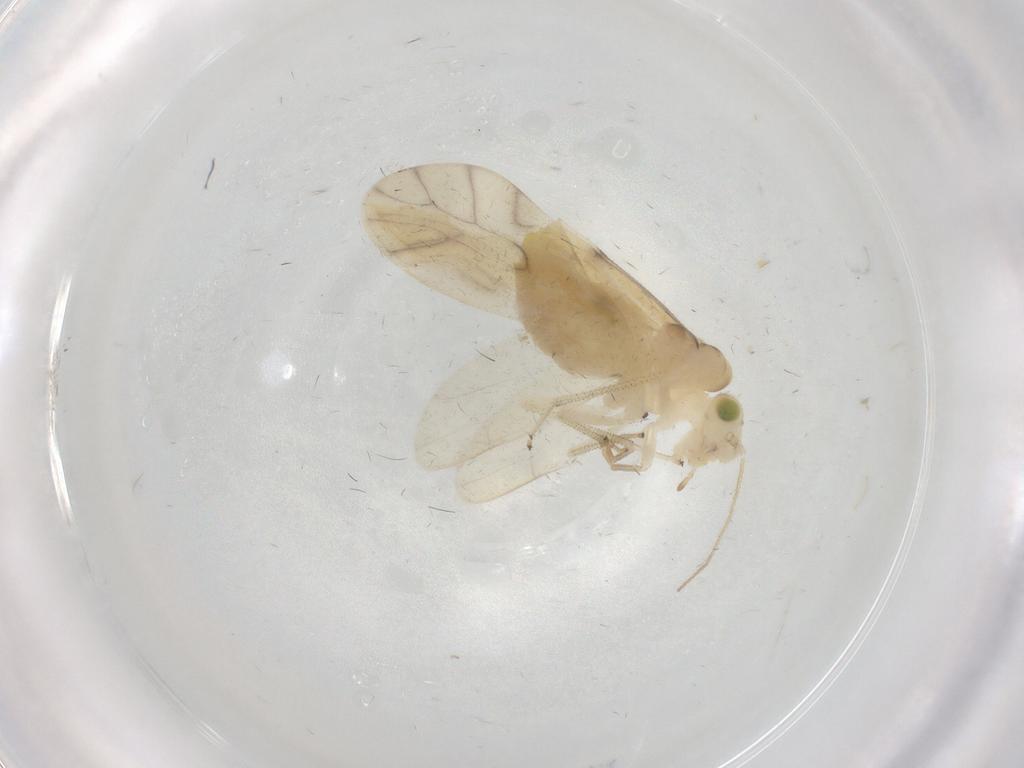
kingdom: Animalia
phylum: Arthropoda
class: Insecta
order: Psocodea
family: Caeciliusidae
